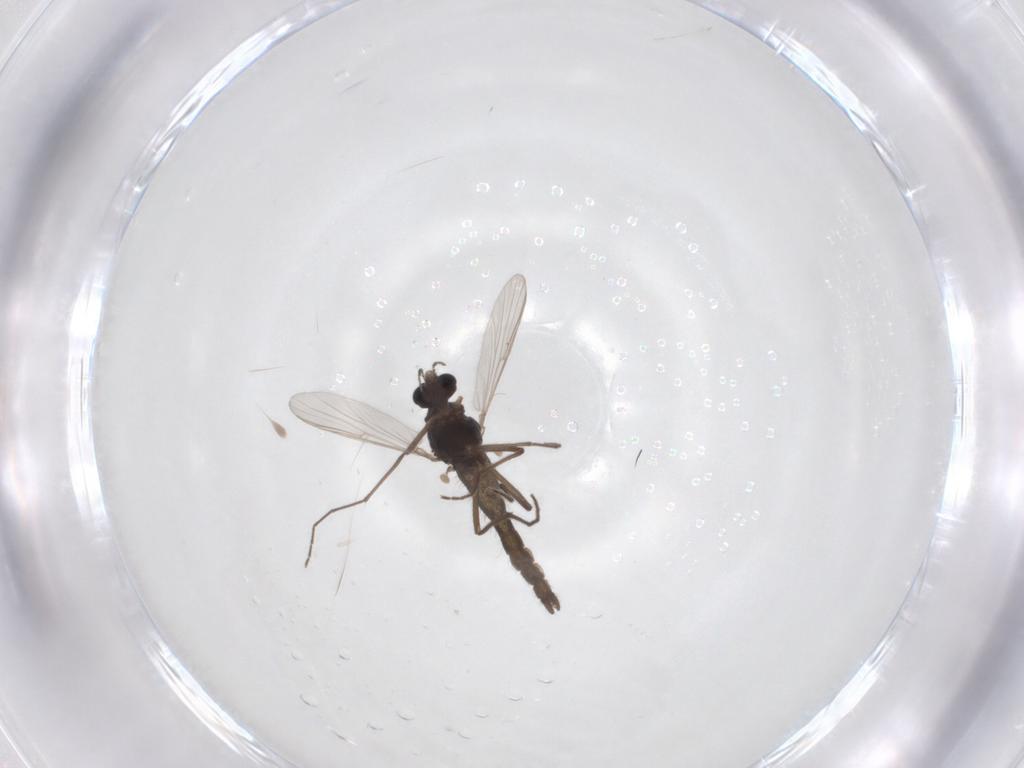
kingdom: Animalia
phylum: Arthropoda
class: Insecta
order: Diptera
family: Chironomidae
